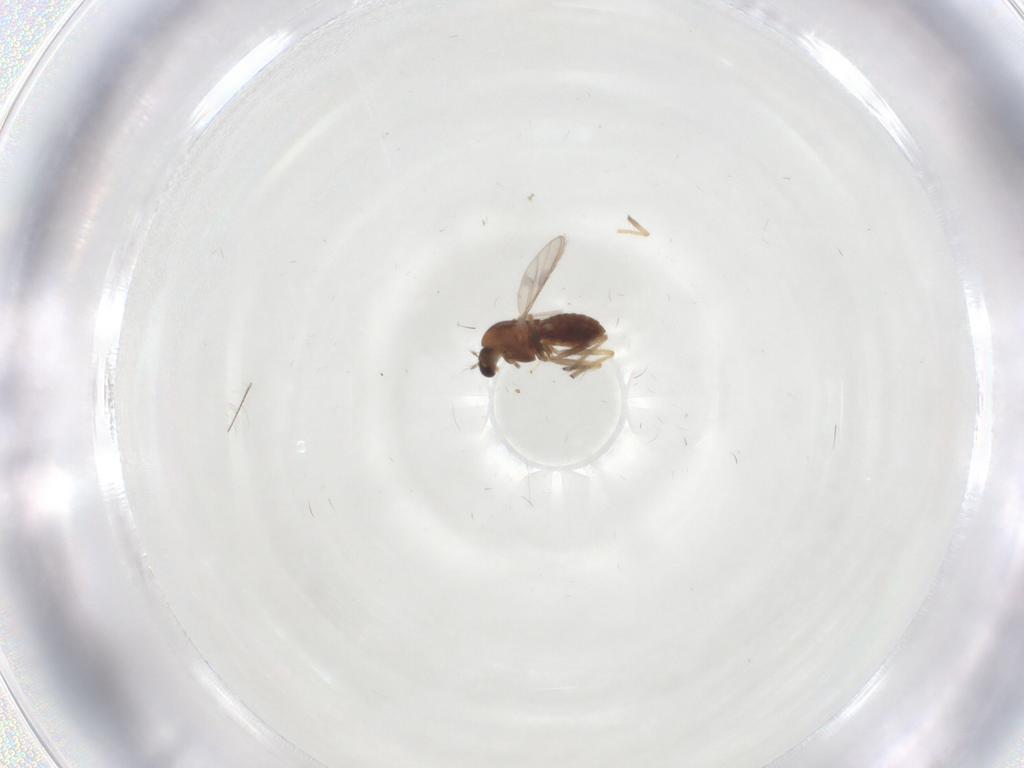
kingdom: Animalia
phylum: Arthropoda
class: Insecta
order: Diptera
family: Chironomidae
